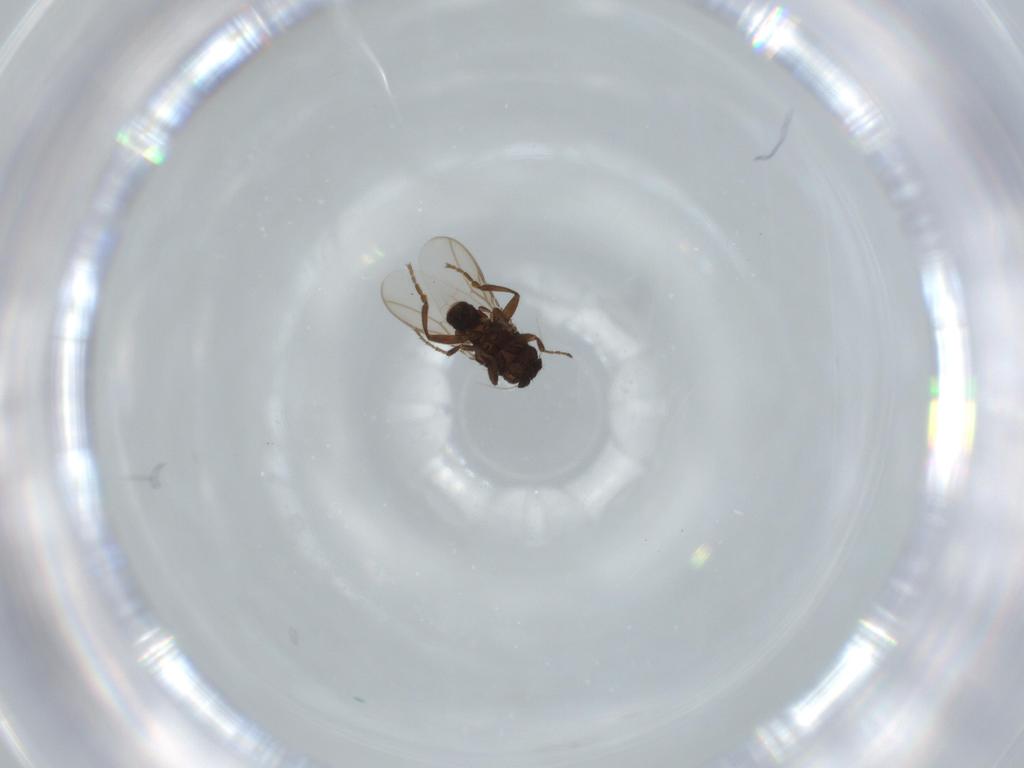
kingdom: Animalia
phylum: Arthropoda
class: Insecta
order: Diptera
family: Sphaeroceridae
